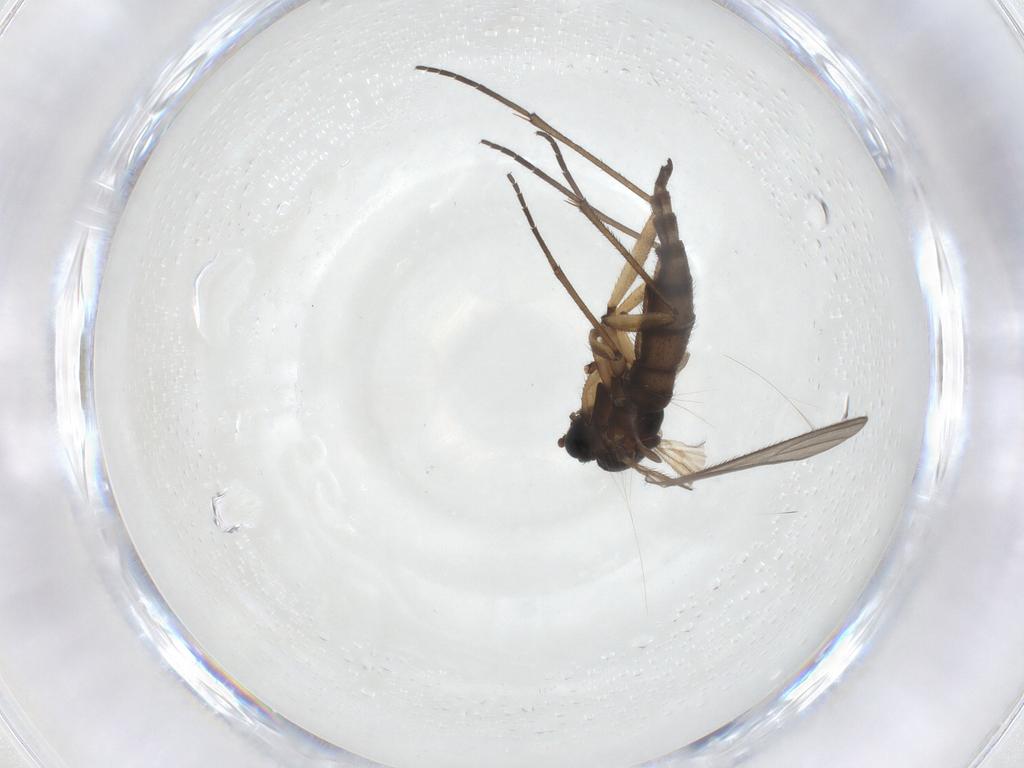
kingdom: Animalia
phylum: Arthropoda
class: Insecta
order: Diptera
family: Sciaridae
